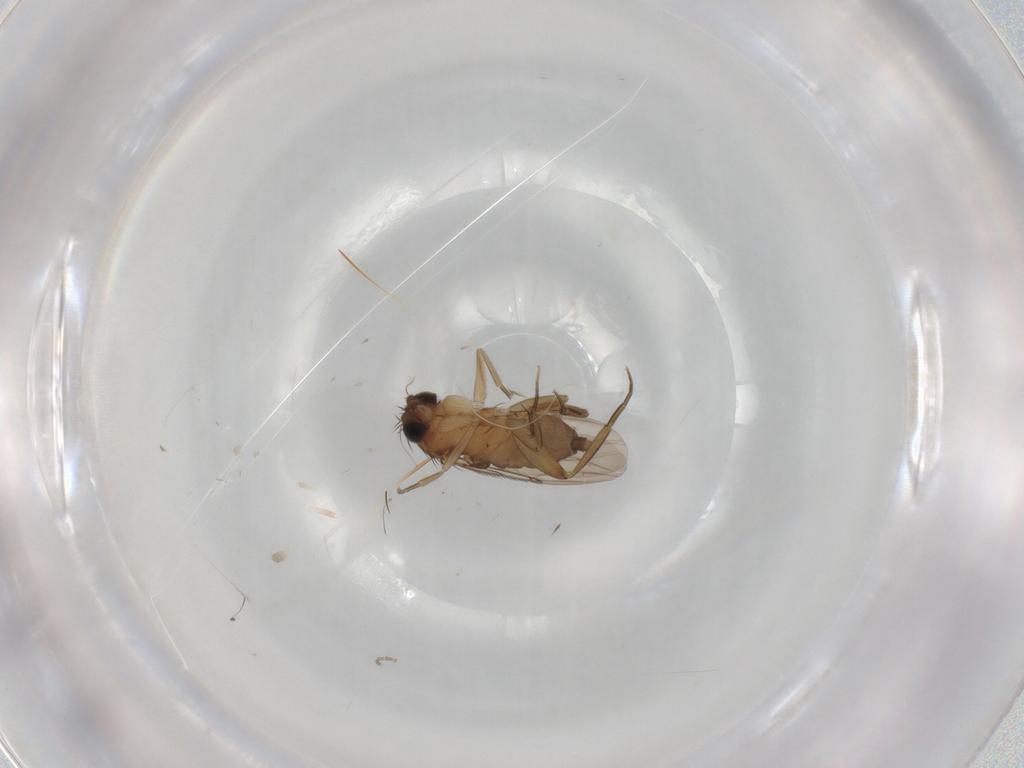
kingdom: Animalia
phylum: Arthropoda
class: Insecta
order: Diptera
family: Phoridae
